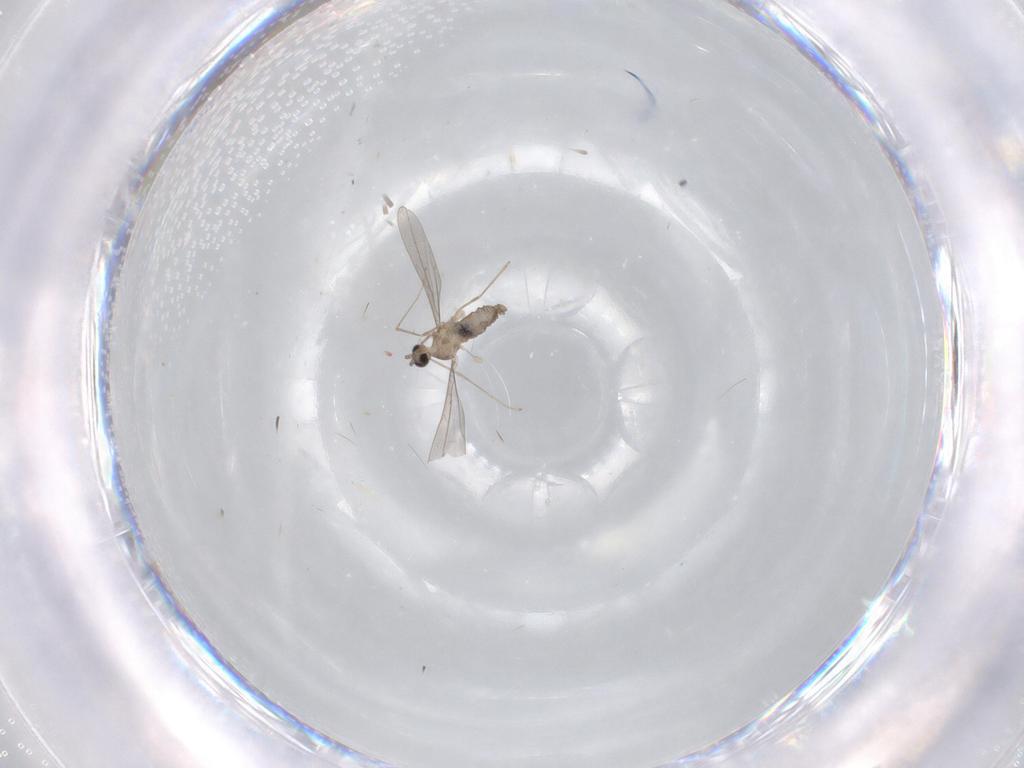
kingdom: Animalia
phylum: Arthropoda
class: Insecta
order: Diptera
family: Cecidomyiidae
